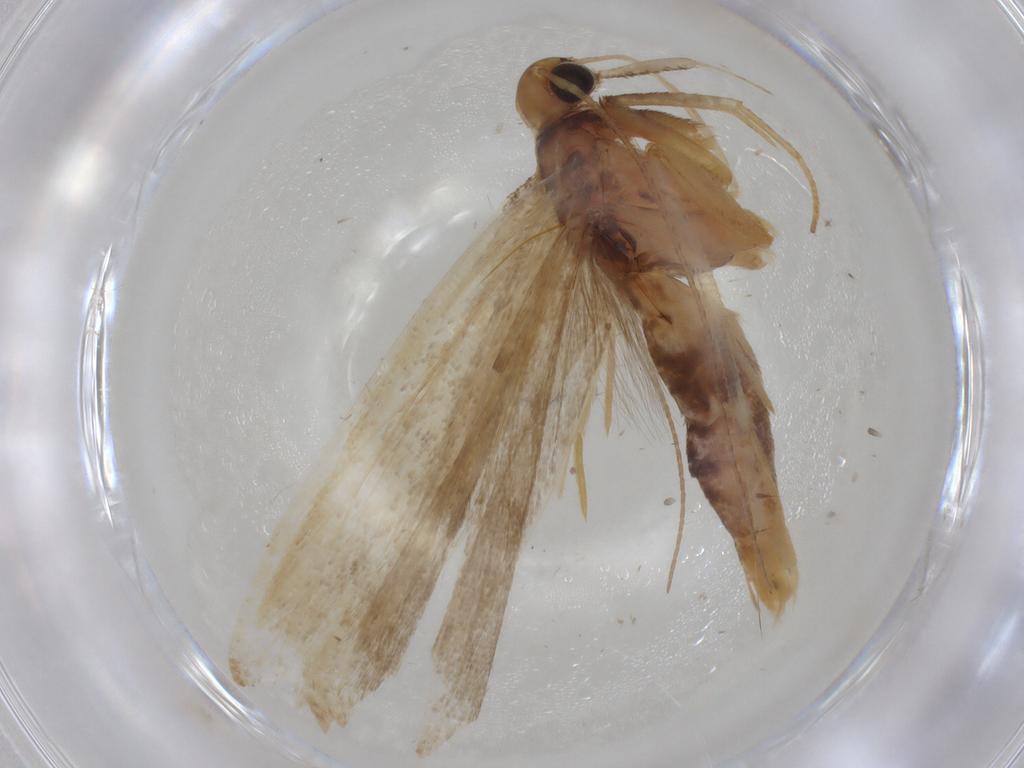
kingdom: Animalia
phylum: Arthropoda
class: Insecta
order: Lepidoptera
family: Gelechiidae
